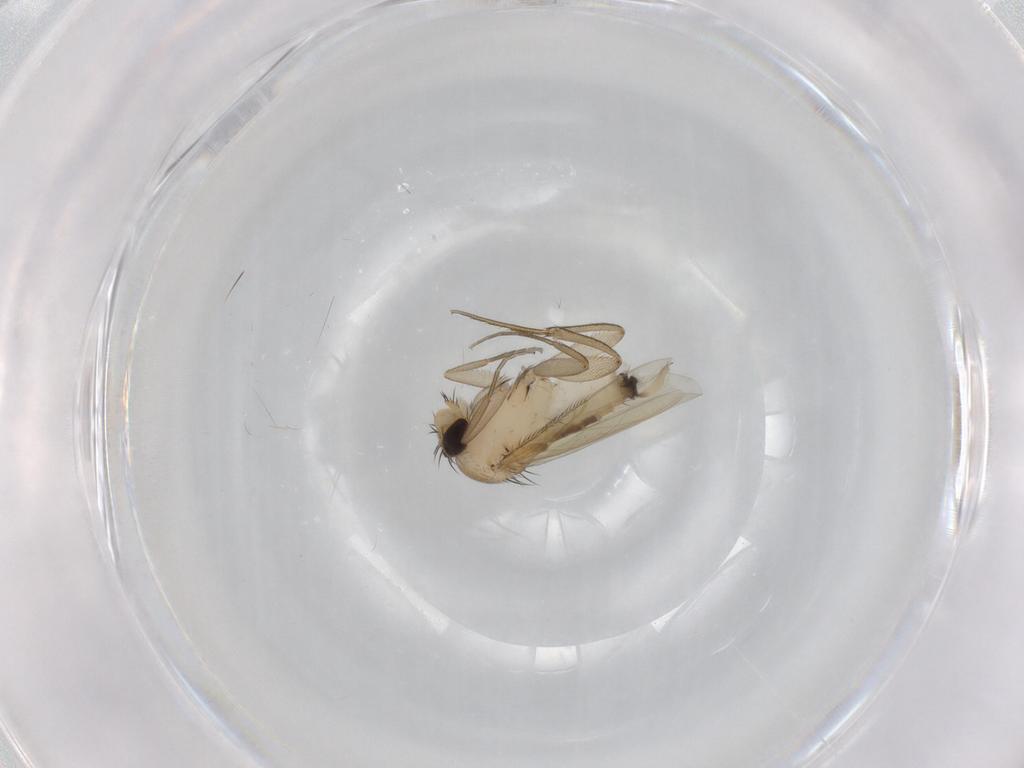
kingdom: Animalia
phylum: Arthropoda
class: Insecta
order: Diptera
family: Phoridae
